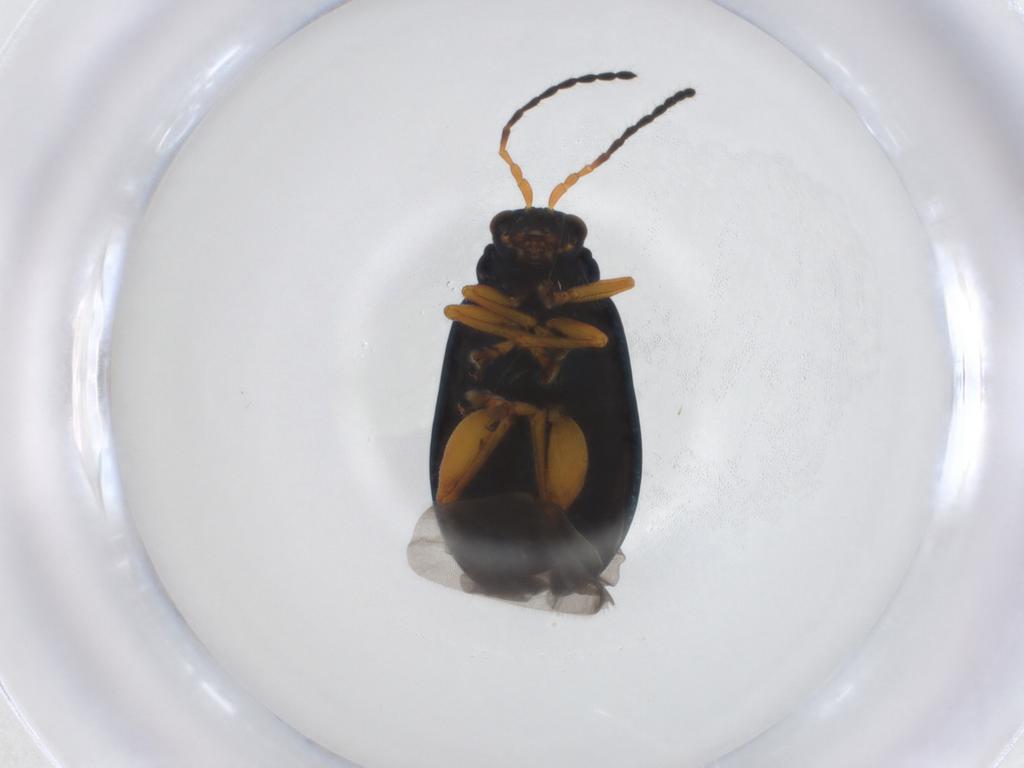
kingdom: Animalia
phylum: Arthropoda
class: Insecta
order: Coleoptera
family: Chrysomelidae
